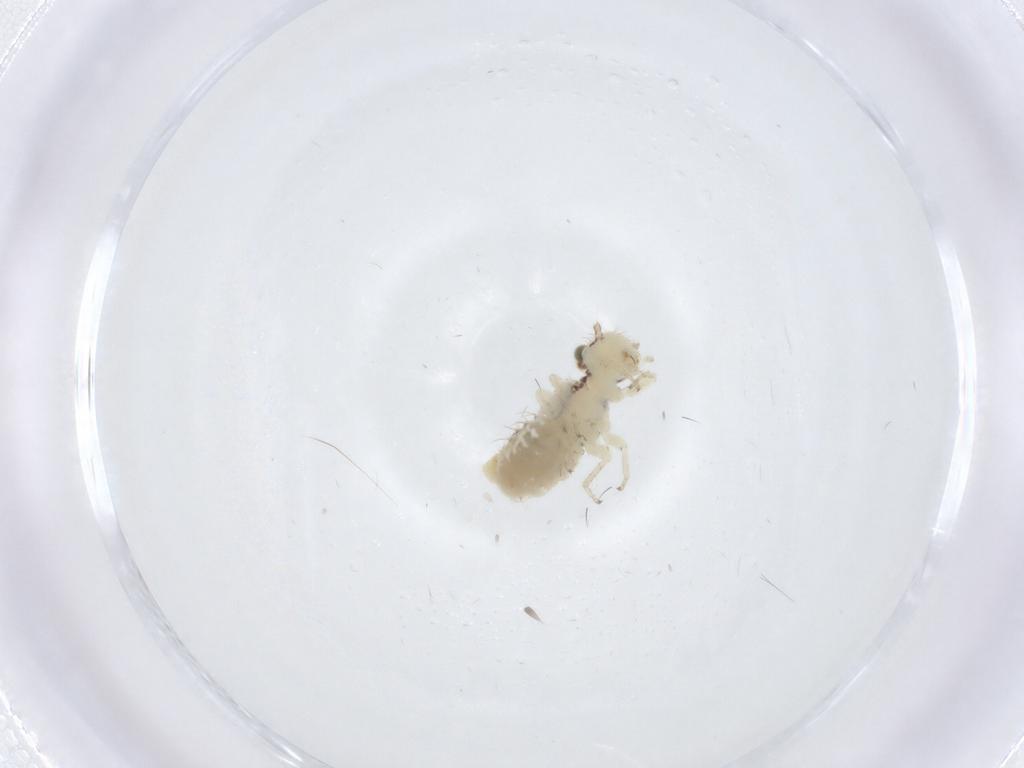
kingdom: Animalia
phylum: Arthropoda
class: Insecta
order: Psocodea
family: Pseudocaeciliidae
